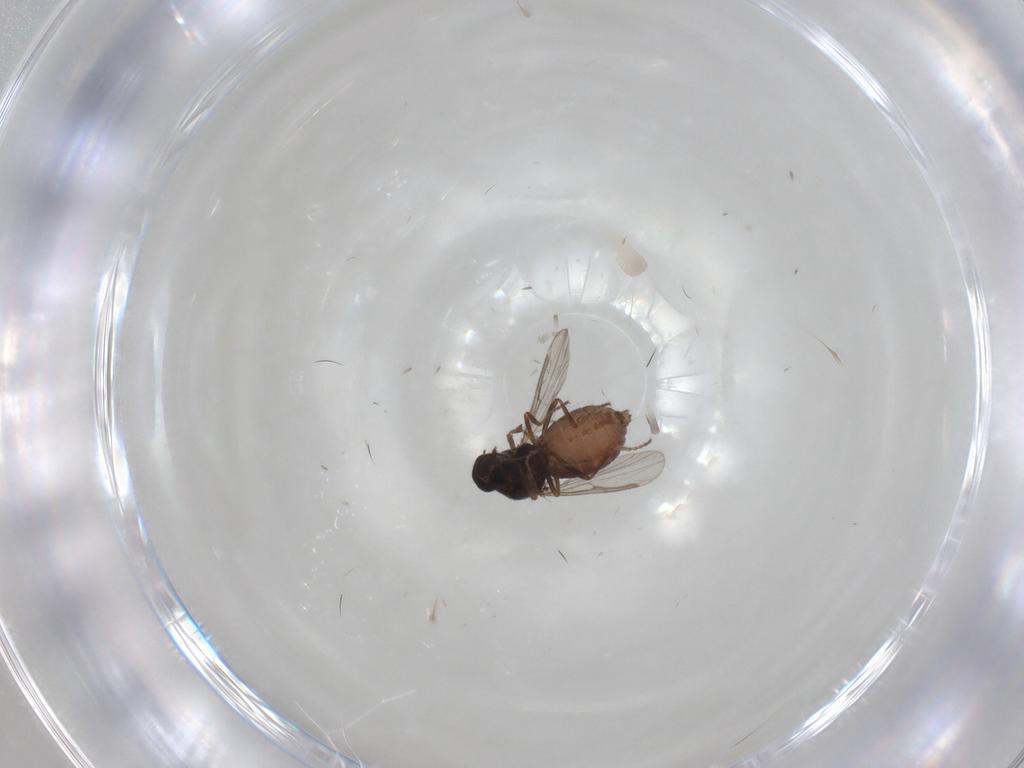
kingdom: Animalia
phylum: Arthropoda
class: Insecta
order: Diptera
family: Ceratopogonidae
